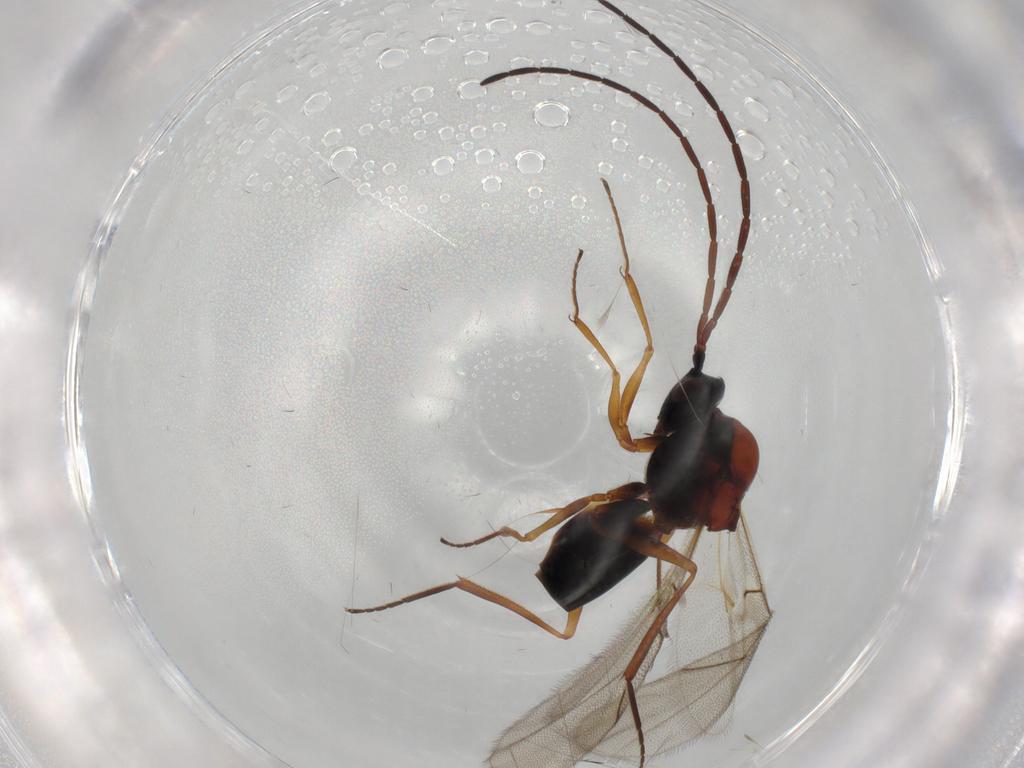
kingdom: Animalia
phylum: Arthropoda
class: Insecta
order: Hymenoptera
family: Figitidae
